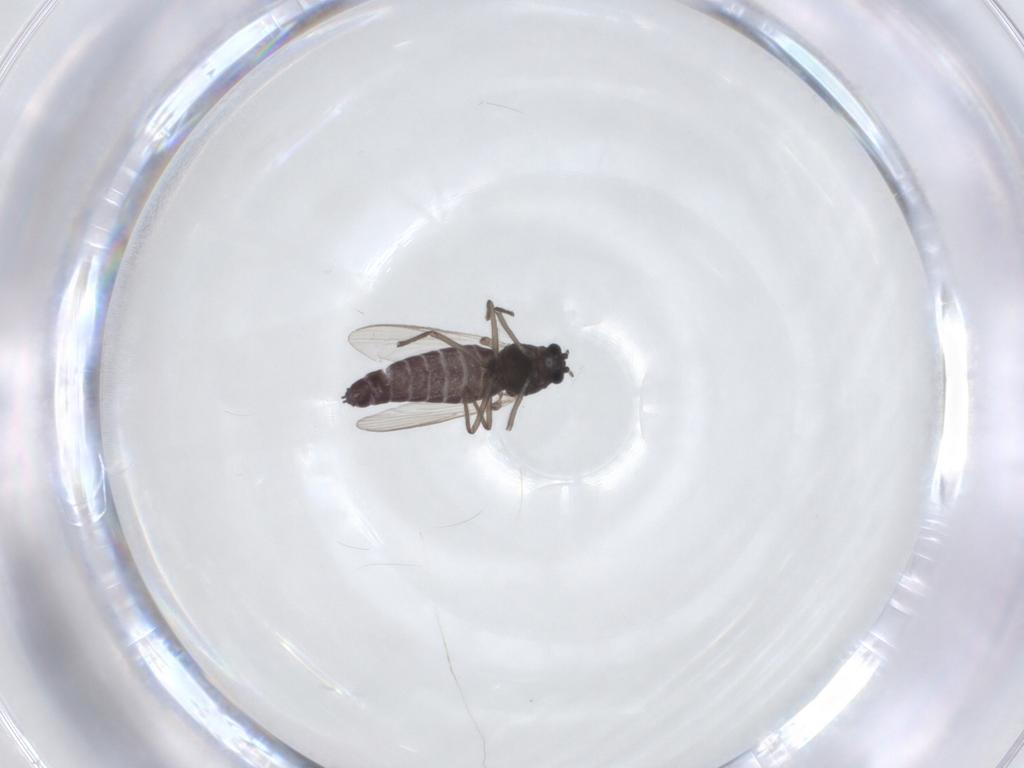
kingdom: Animalia
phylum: Arthropoda
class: Insecta
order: Diptera
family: Chironomidae
